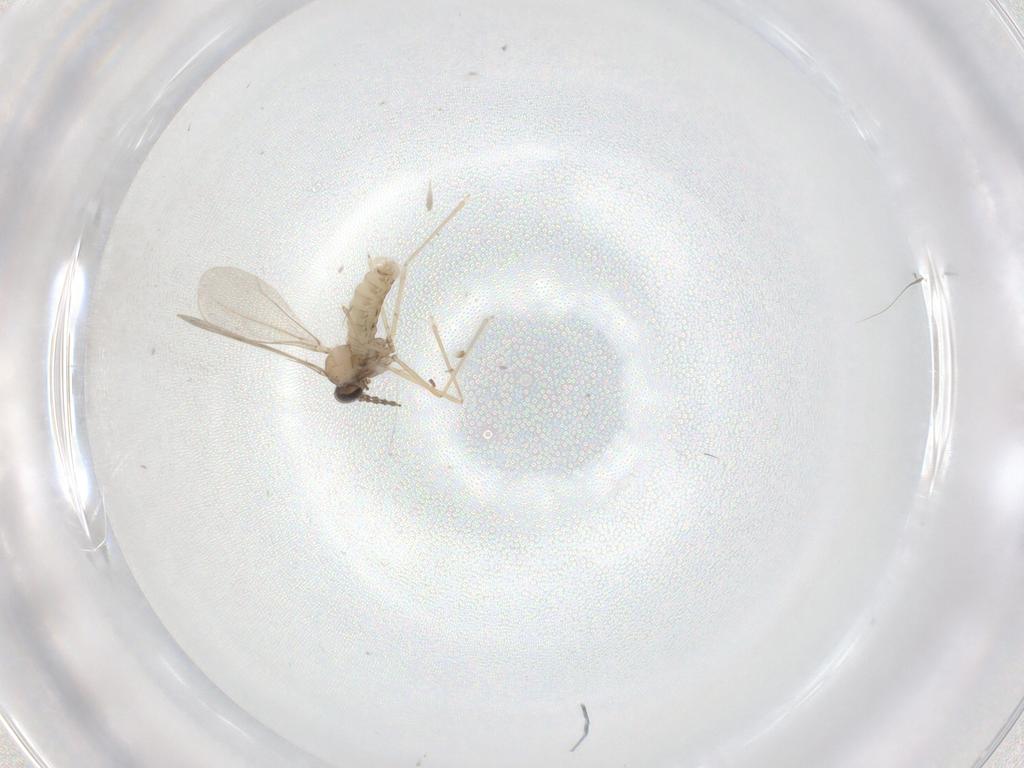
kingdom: Animalia
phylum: Arthropoda
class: Insecta
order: Diptera
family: Cecidomyiidae
